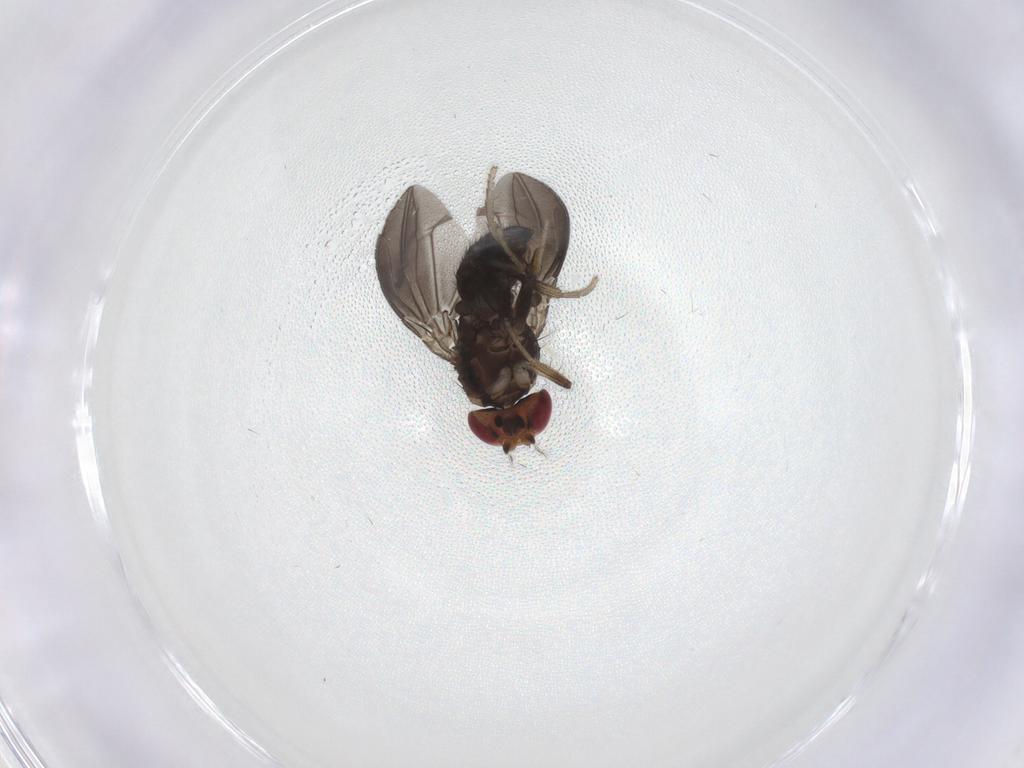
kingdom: Animalia
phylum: Arthropoda
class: Insecta
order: Diptera
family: Drosophilidae
